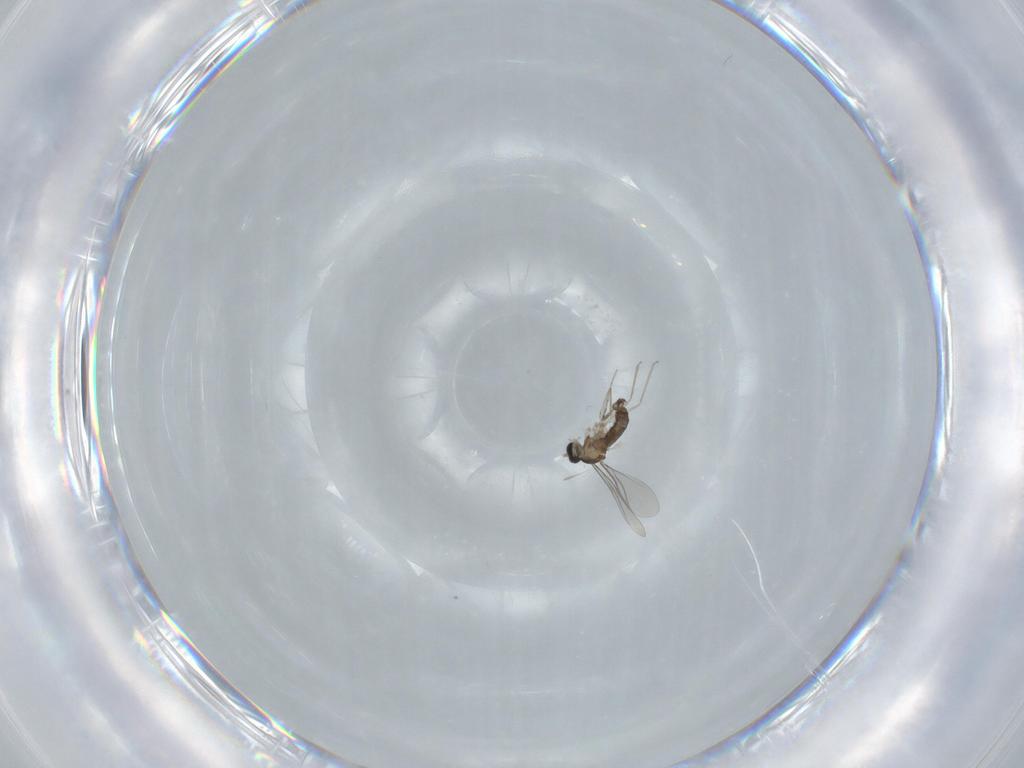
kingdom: Animalia
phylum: Arthropoda
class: Insecta
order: Diptera
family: Cecidomyiidae
